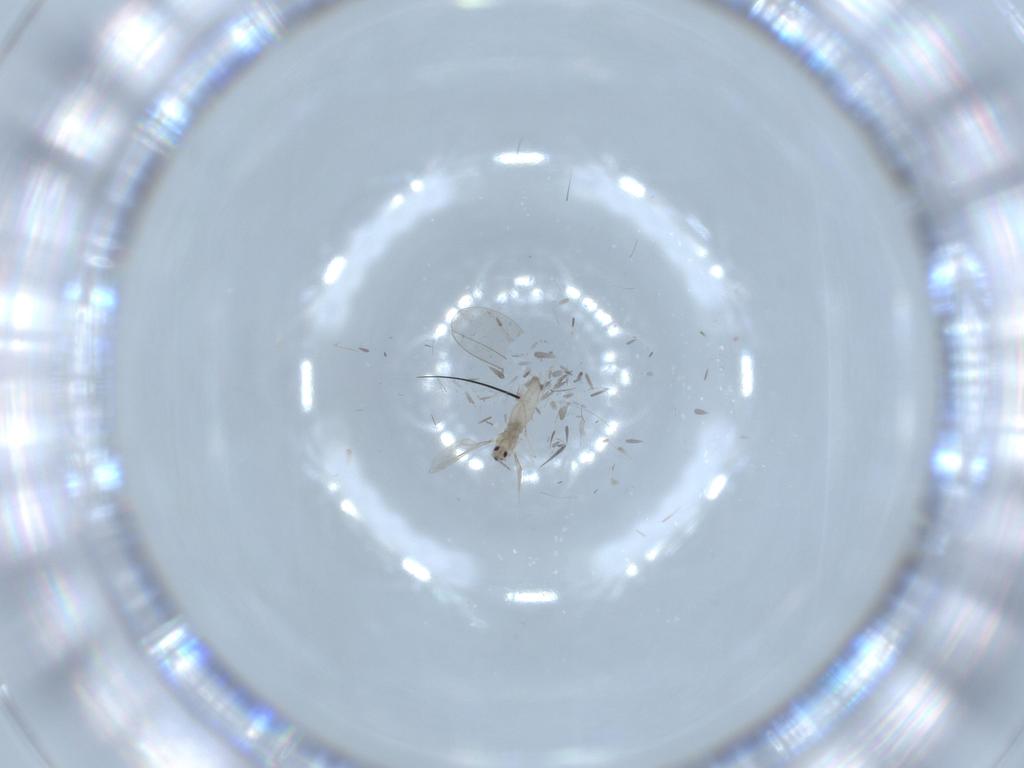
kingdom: Animalia
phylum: Arthropoda
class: Insecta
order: Diptera
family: Cecidomyiidae
